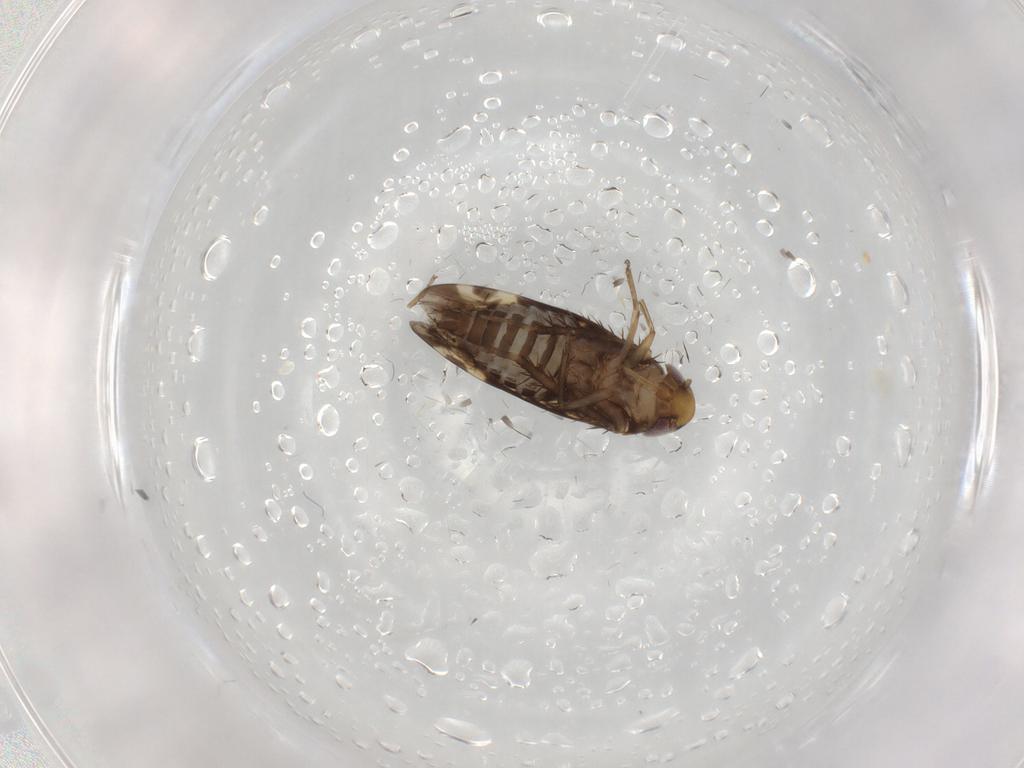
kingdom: Animalia
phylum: Arthropoda
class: Insecta
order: Hemiptera
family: Cicadellidae
